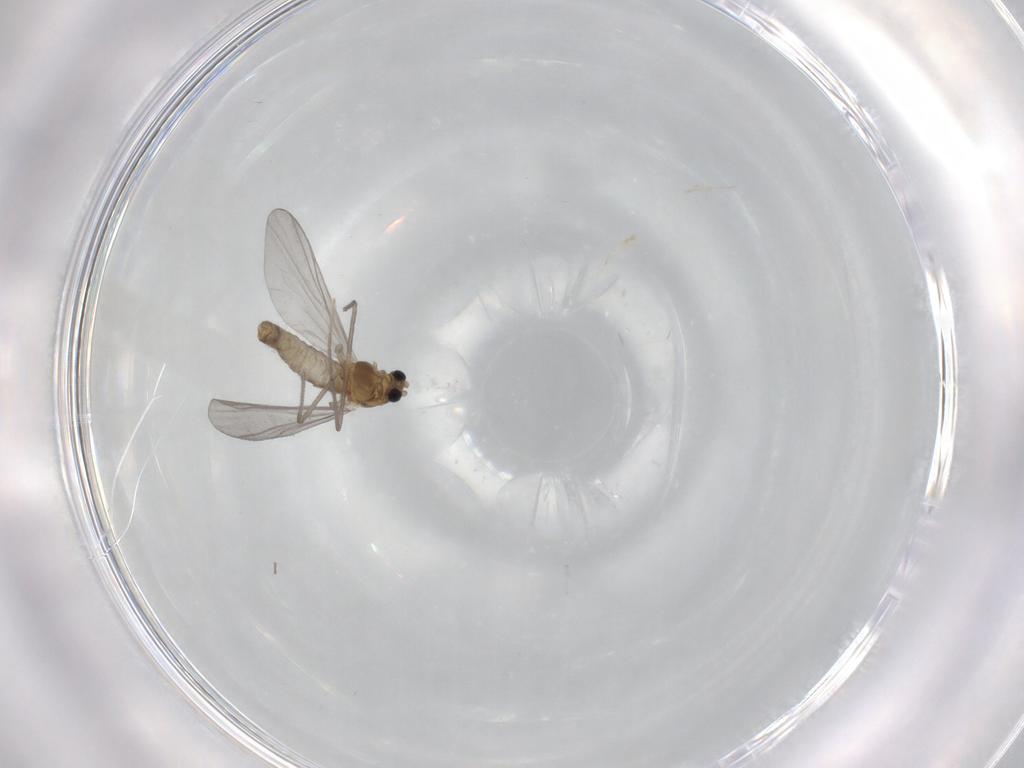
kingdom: Animalia
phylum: Arthropoda
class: Insecta
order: Diptera
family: Chironomidae
